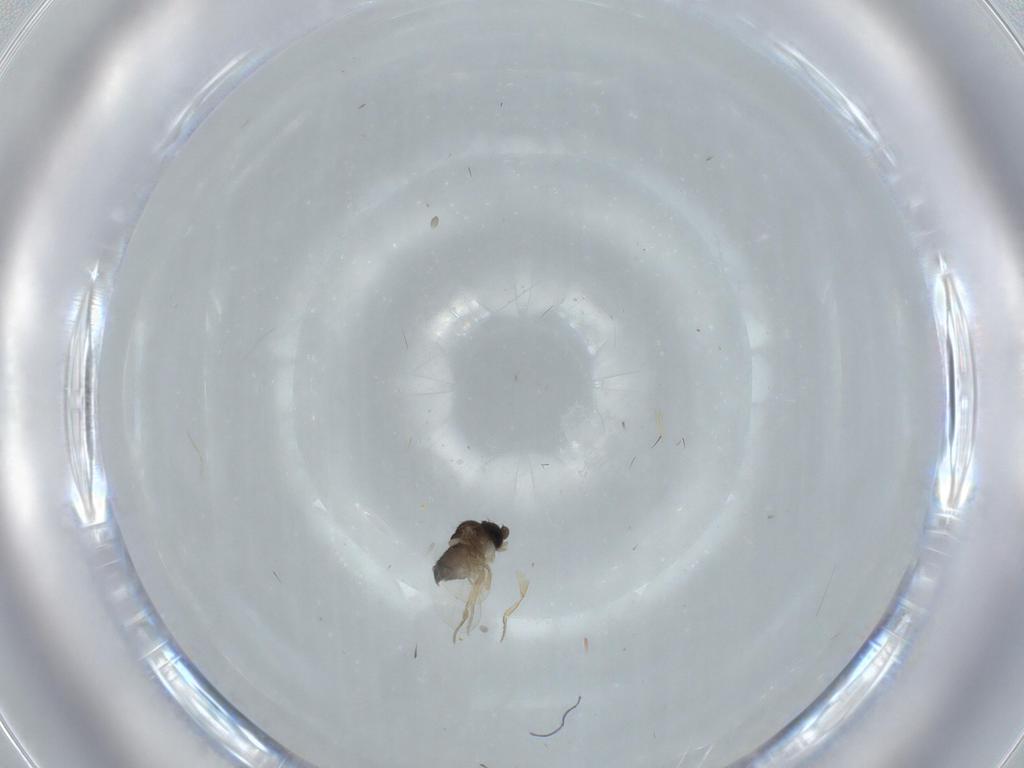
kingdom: Animalia
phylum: Arthropoda
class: Insecta
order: Diptera
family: Phoridae
